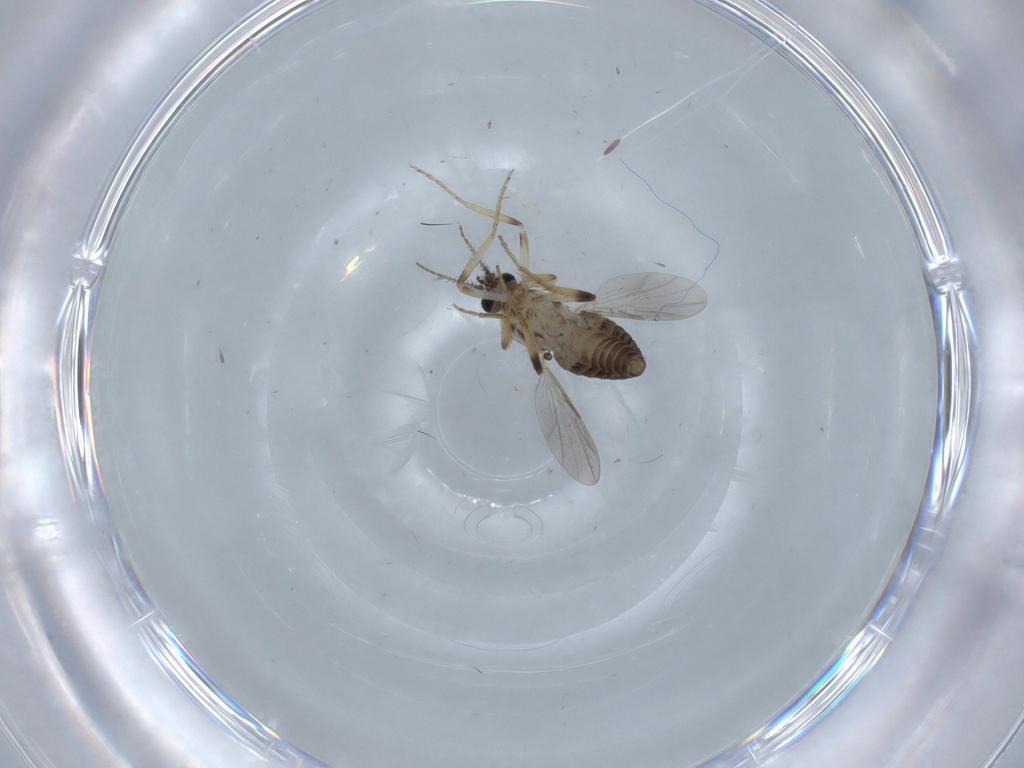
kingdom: Animalia
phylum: Arthropoda
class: Insecta
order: Diptera
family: Ceratopogonidae
